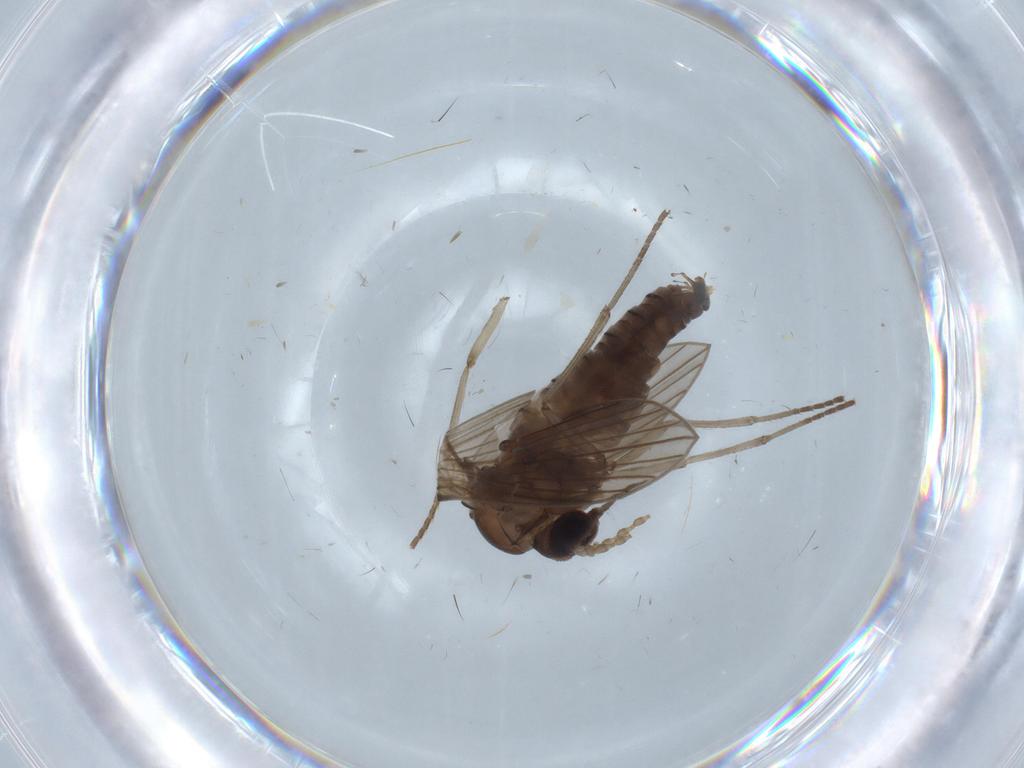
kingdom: Animalia
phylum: Arthropoda
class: Insecta
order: Diptera
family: Sciaridae
